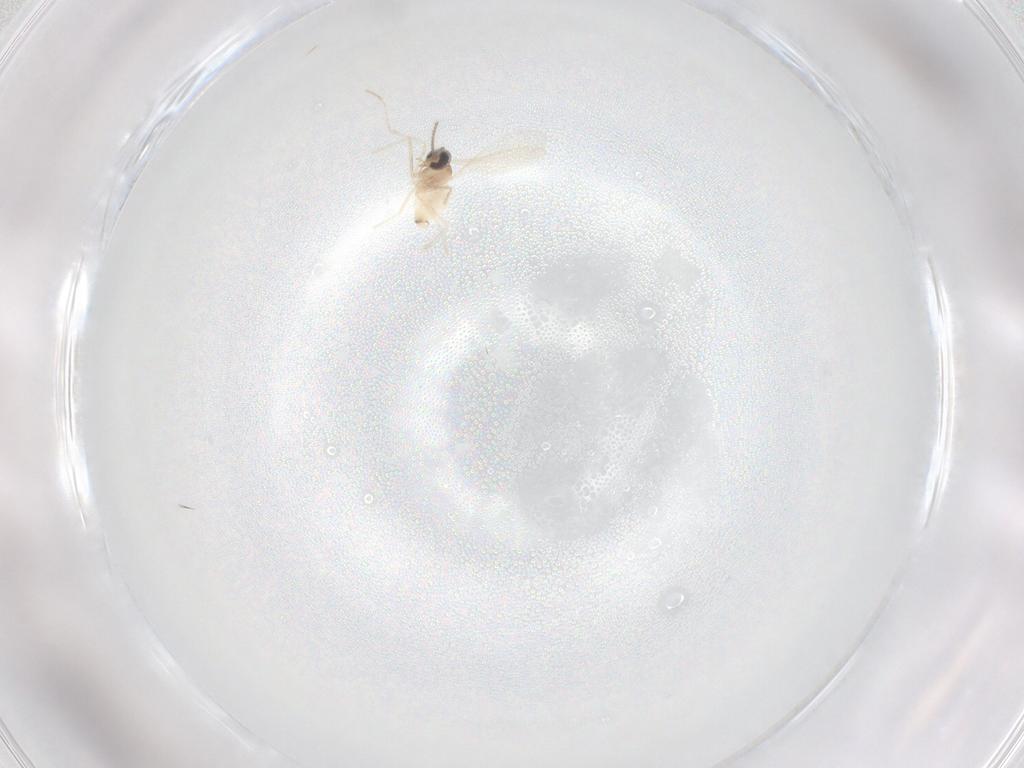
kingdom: Animalia
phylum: Arthropoda
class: Insecta
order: Diptera
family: Cecidomyiidae
